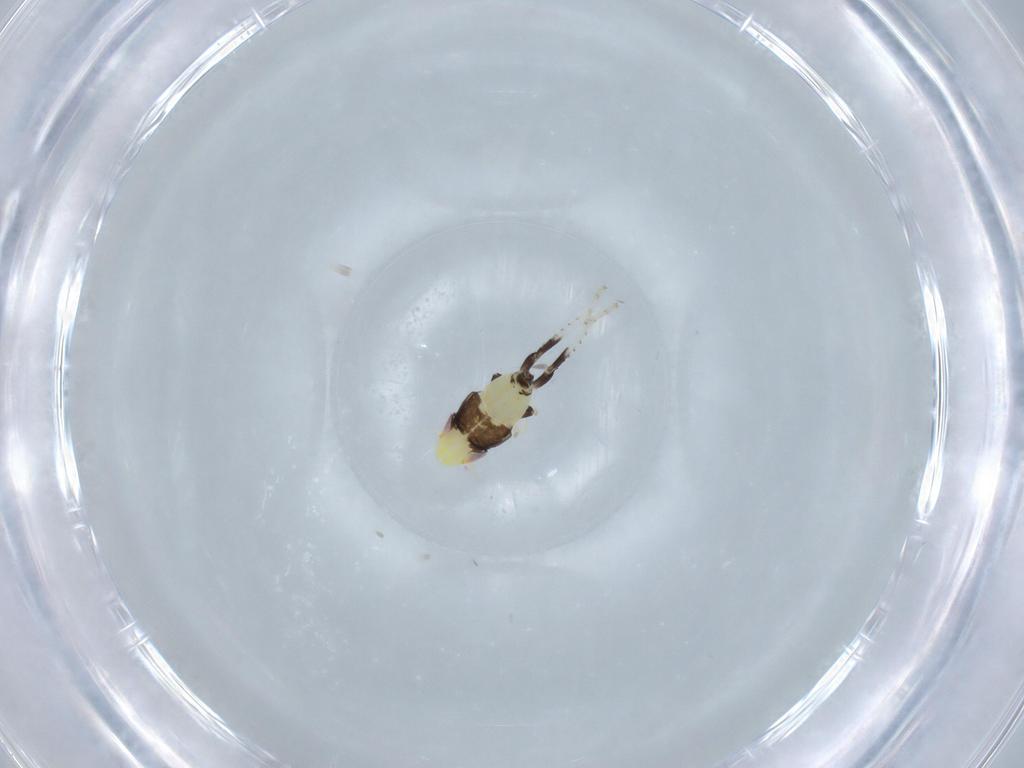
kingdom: Animalia
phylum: Arthropoda
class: Insecta
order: Hemiptera
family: Cicadellidae
